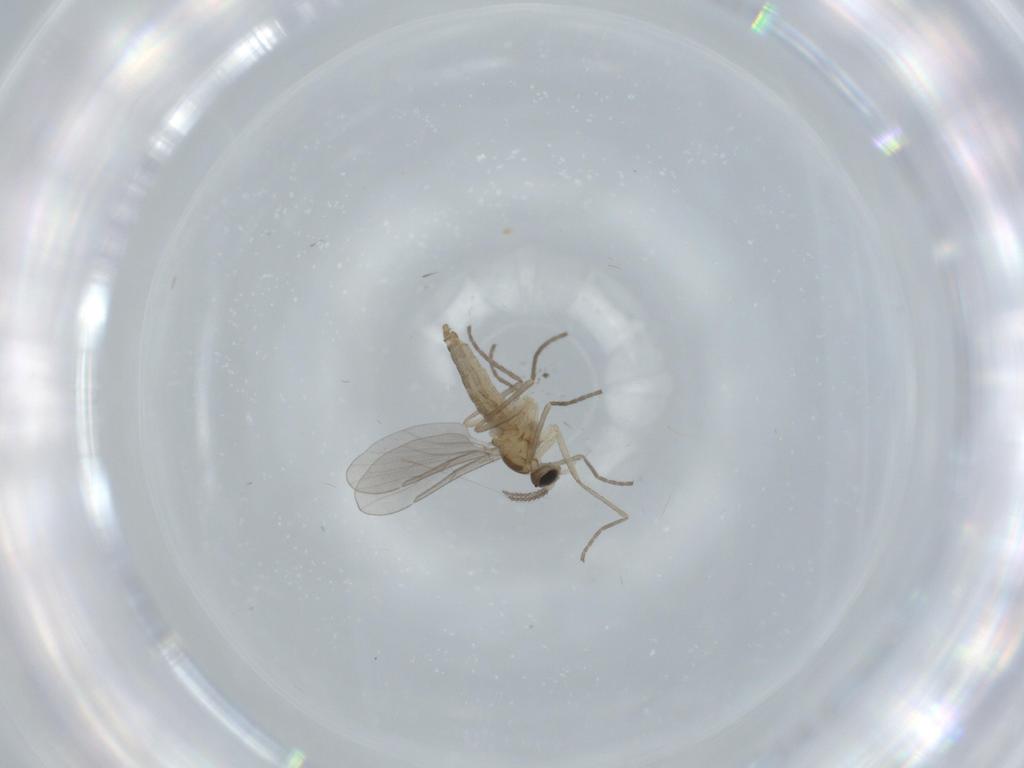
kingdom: Animalia
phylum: Arthropoda
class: Insecta
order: Diptera
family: Cecidomyiidae
